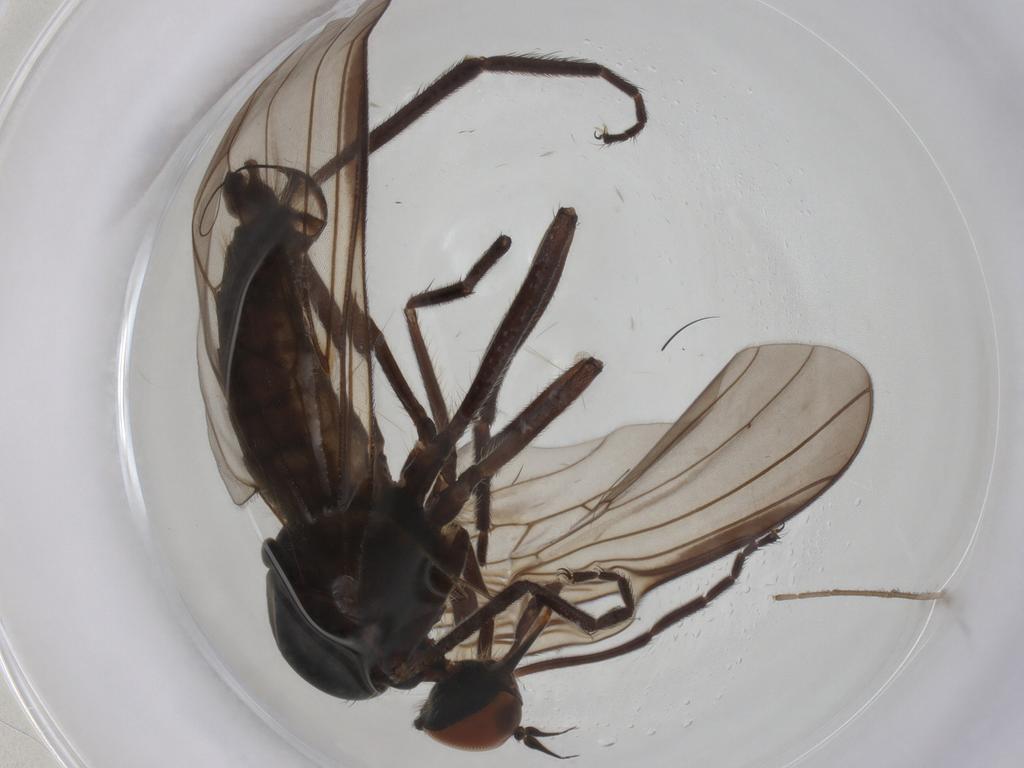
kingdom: Animalia
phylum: Arthropoda
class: Insecta
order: Diptera
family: Empididae
